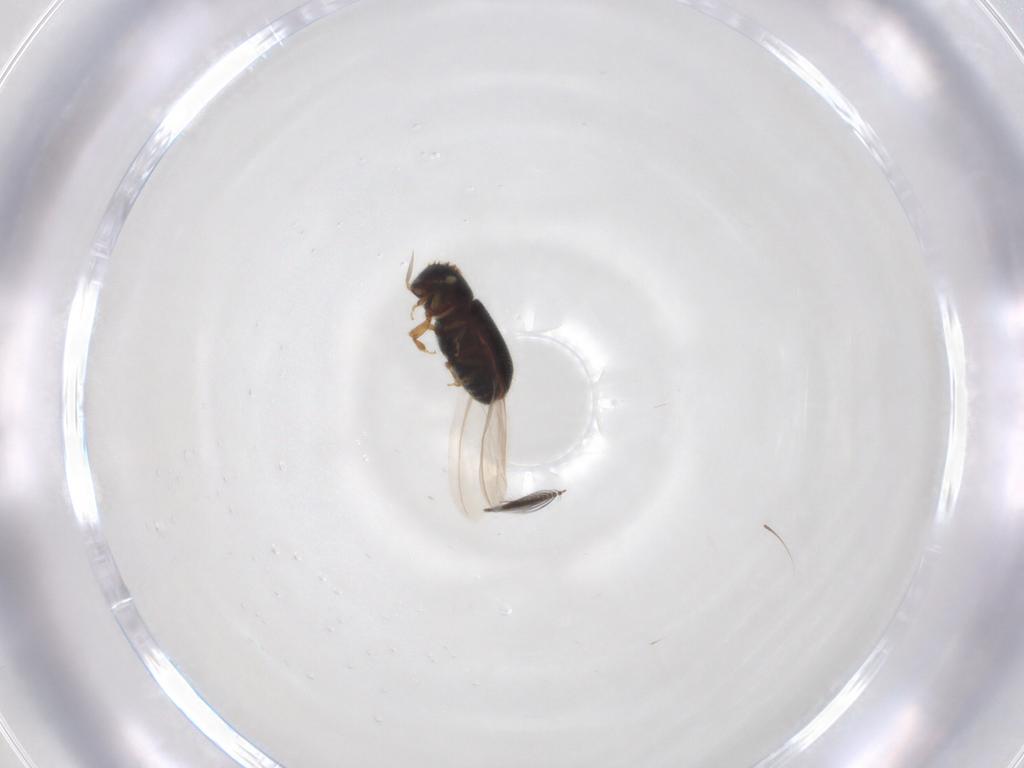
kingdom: Animalia
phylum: Arthropoda
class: Insecta
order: Coleoptera
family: Curculionidae
